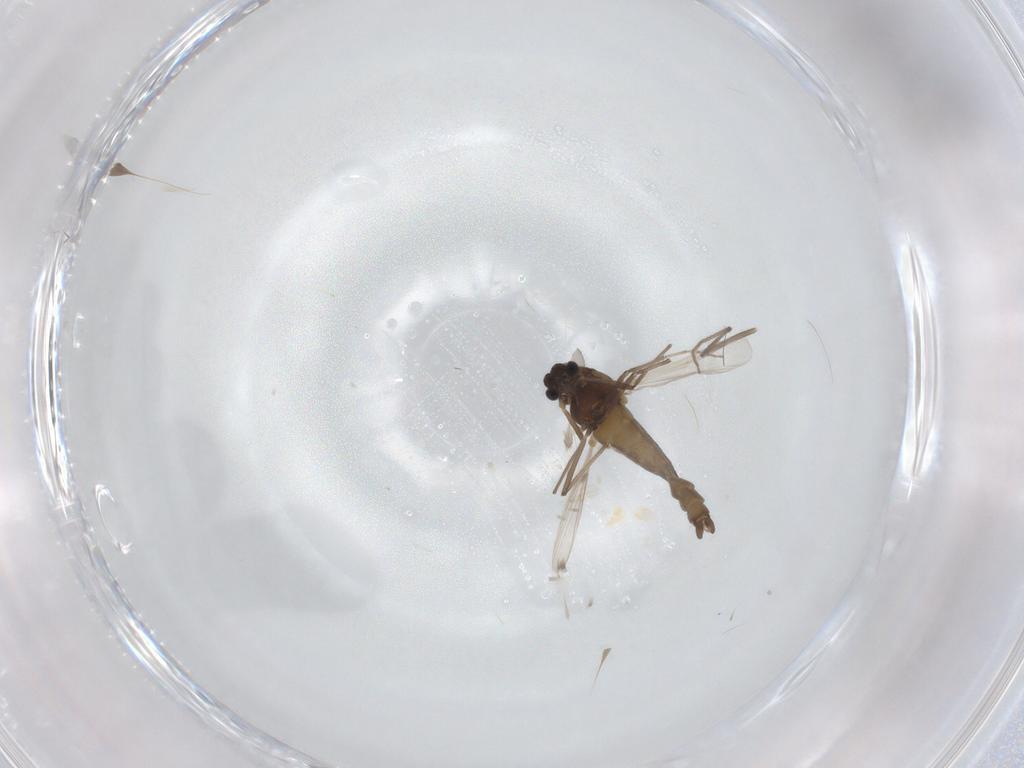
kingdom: Animalia
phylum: Arthropoda
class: Insecta
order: Diptera
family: Chironomidae
